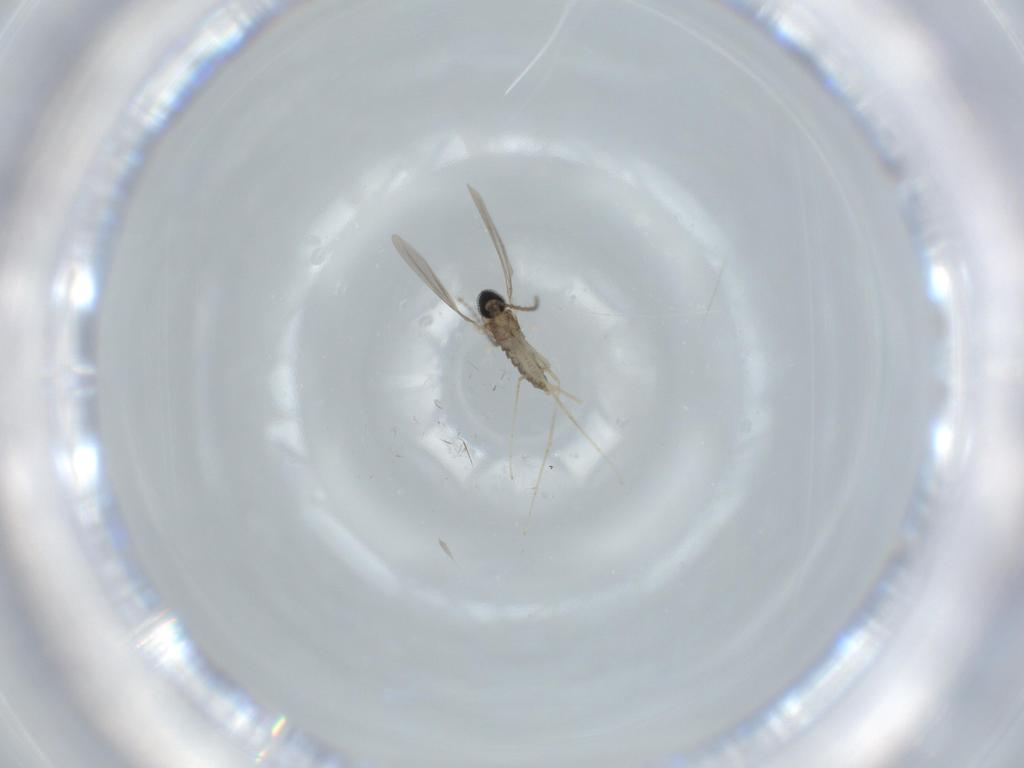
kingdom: Animalia
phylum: Arthropoda
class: Insecta
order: Diptera
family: Cecidomyiidae
